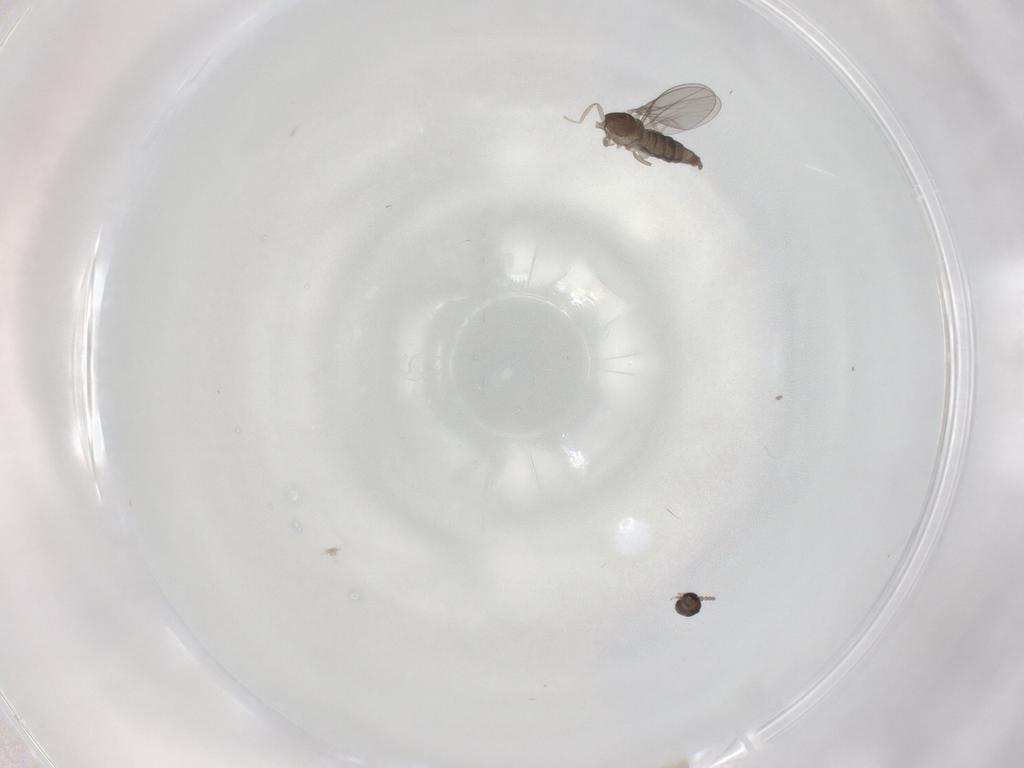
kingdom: Animalia
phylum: Arthropoda
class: Insecta
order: Diptera
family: Cecidomyiidae
